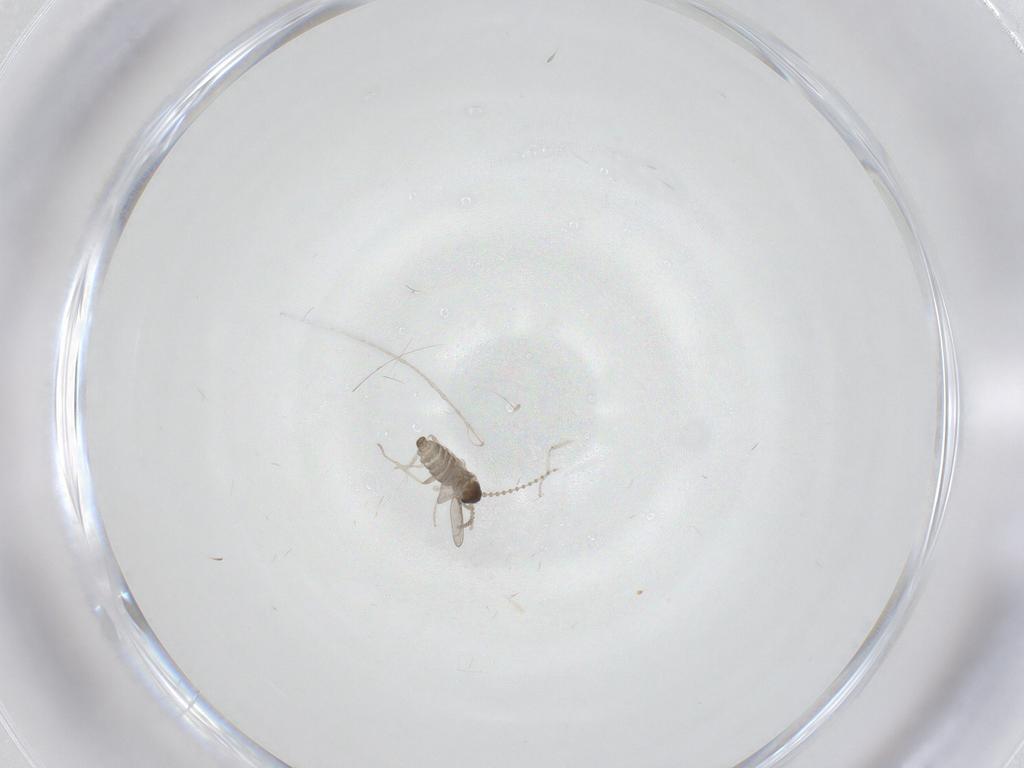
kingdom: Animalia
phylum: Arthropoda
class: Insecta
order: Diptera
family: Cecidomyiidae
